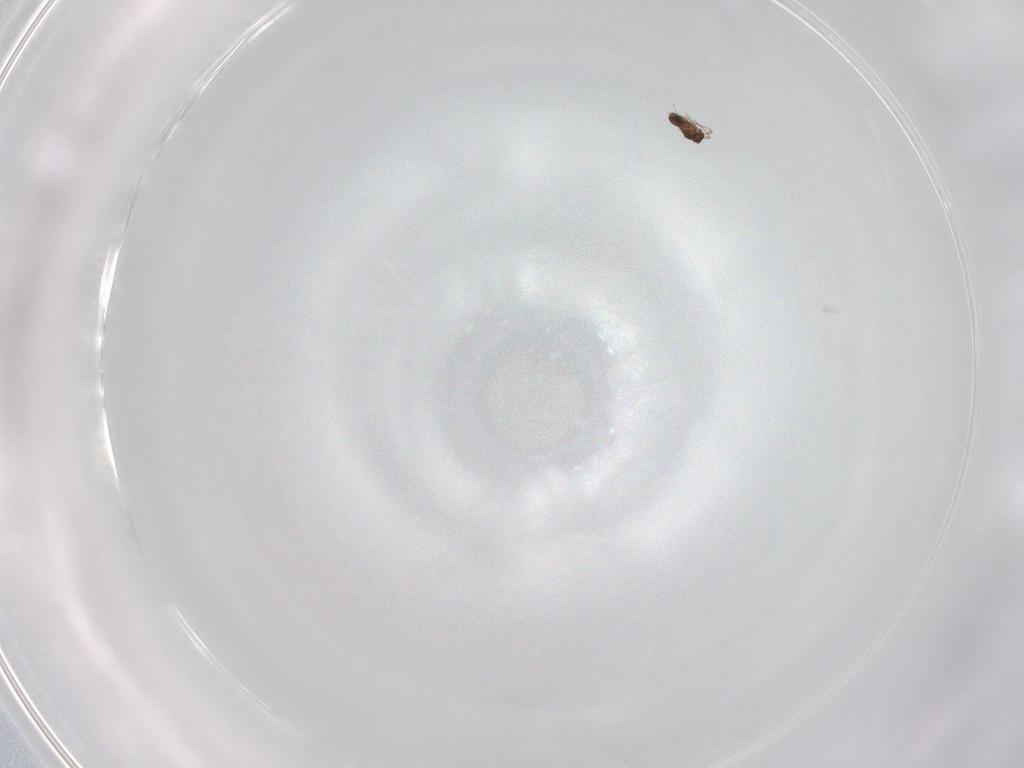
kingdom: Animalia
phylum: Arthropoda
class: Insecta
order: Hymenoptera
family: Mymaridae
